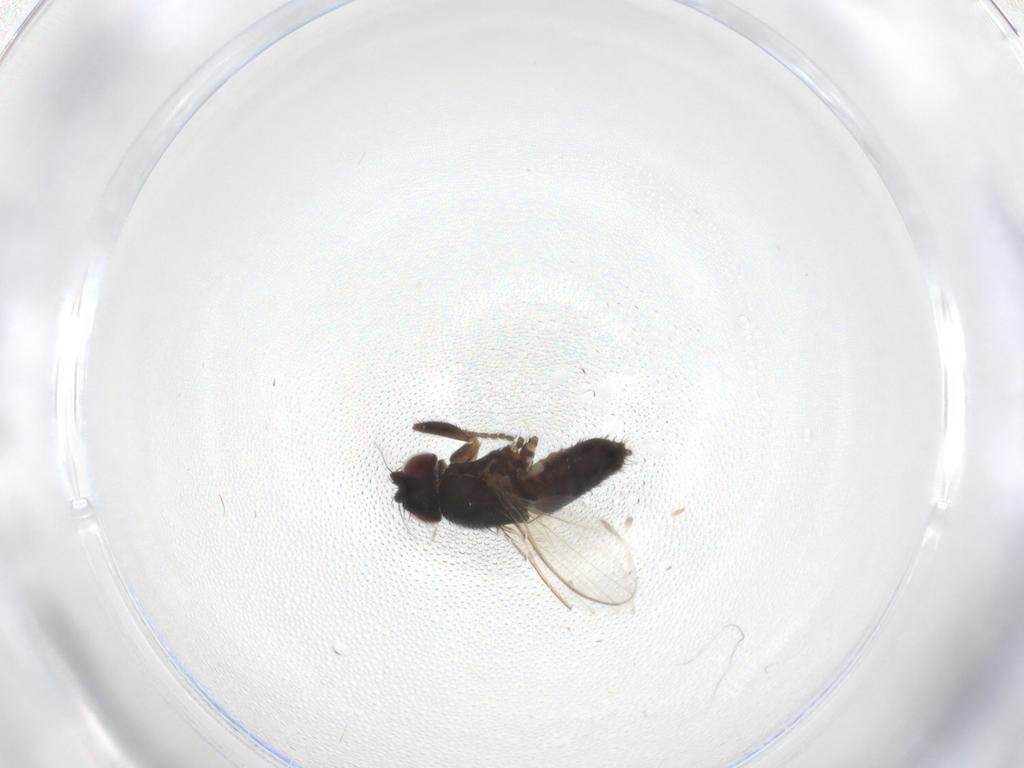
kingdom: Animalia
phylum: Arthropoda
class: Insecta
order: Diptera
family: Milichiidae
